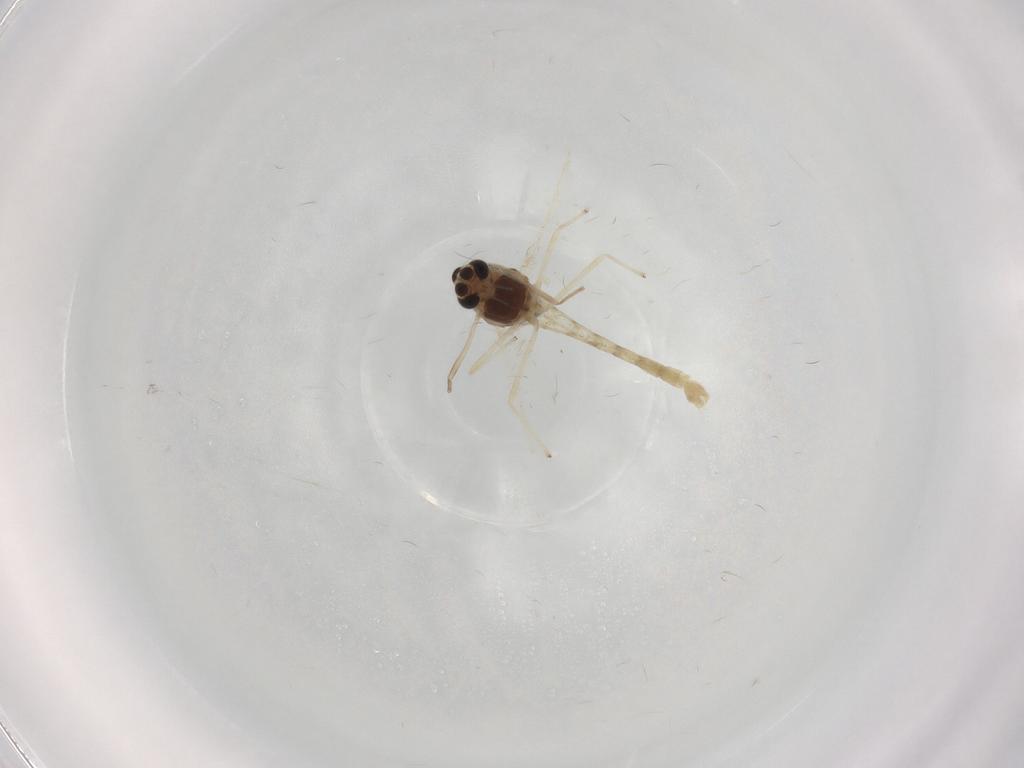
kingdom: Animalia
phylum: Arthropoda
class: Insecta
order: Diptera
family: Chironomidae
